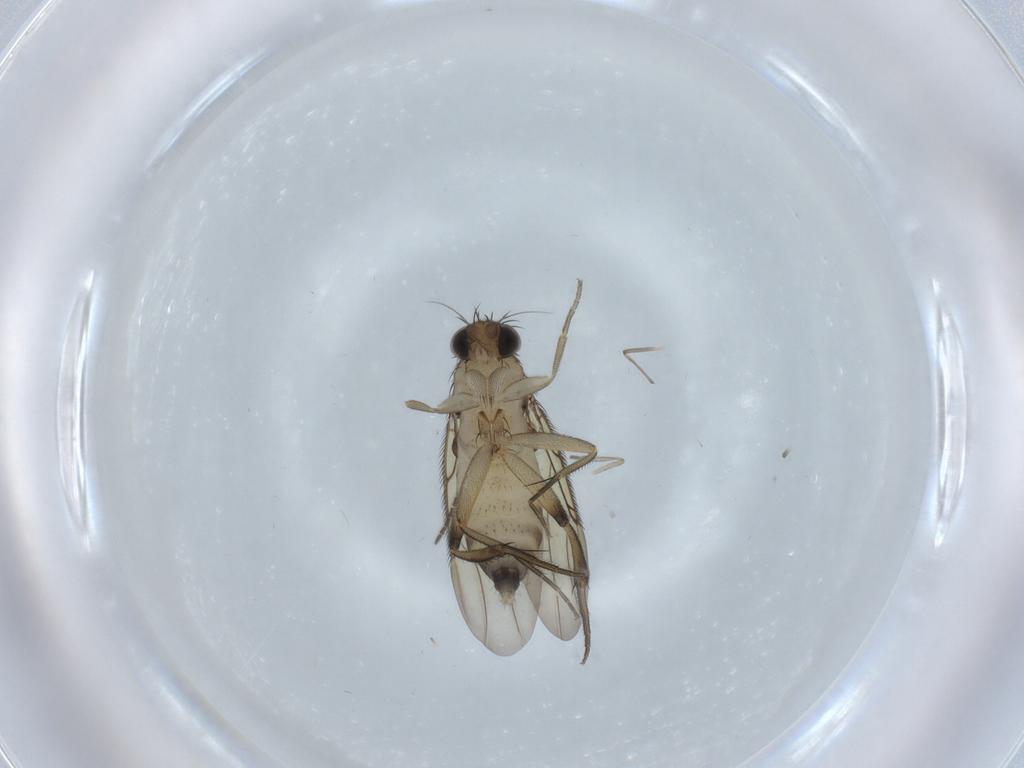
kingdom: Animalia
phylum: Arthropoda
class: Insecta
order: Diptera
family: Psychodidae
